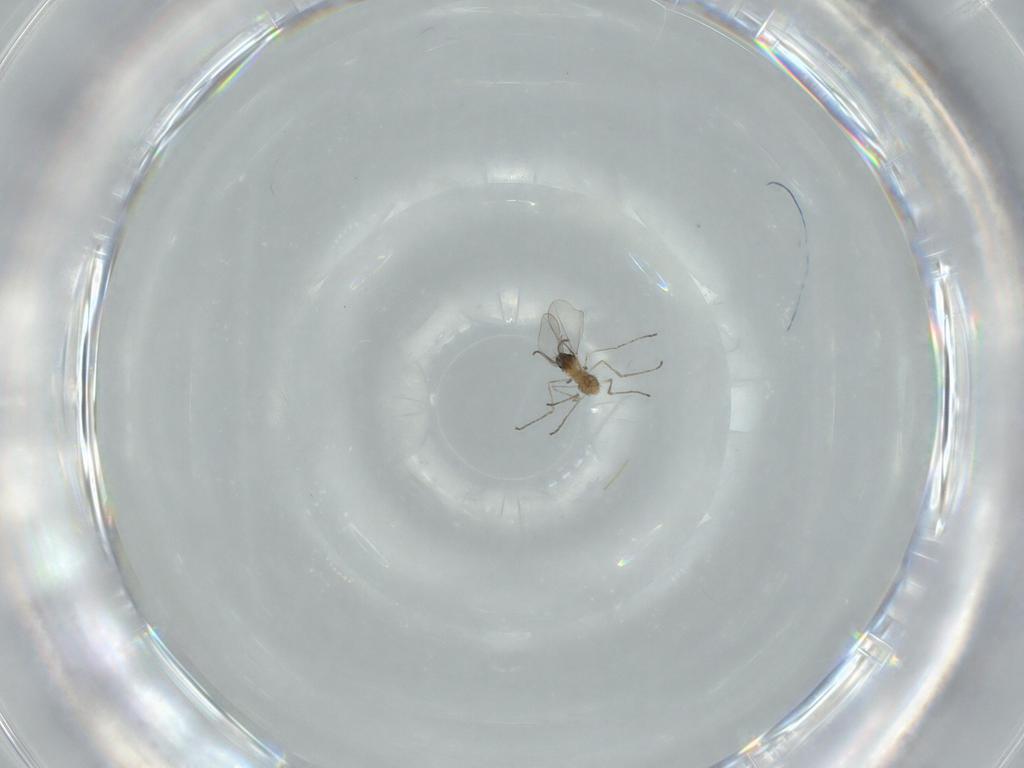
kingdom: Animalia
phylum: Arthropoda
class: Insecta
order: Diptera
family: Cecidomyiidae
